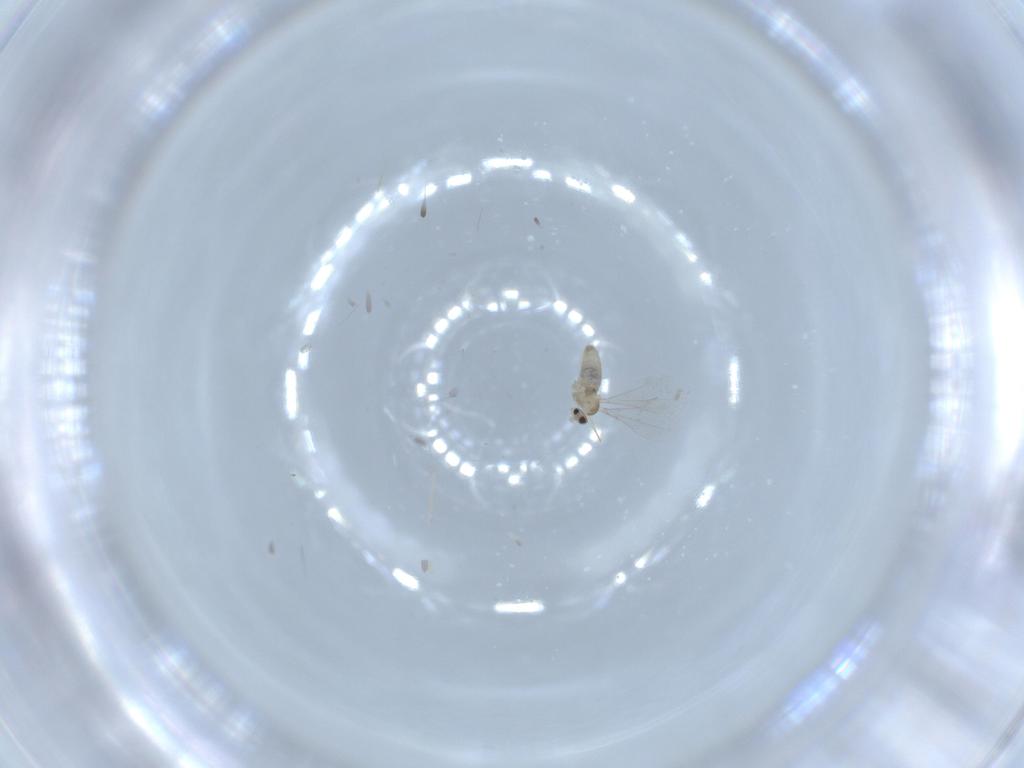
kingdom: Animalia
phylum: Arthropoda
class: Insecta
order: Diptera
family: Cecidomyiidae
